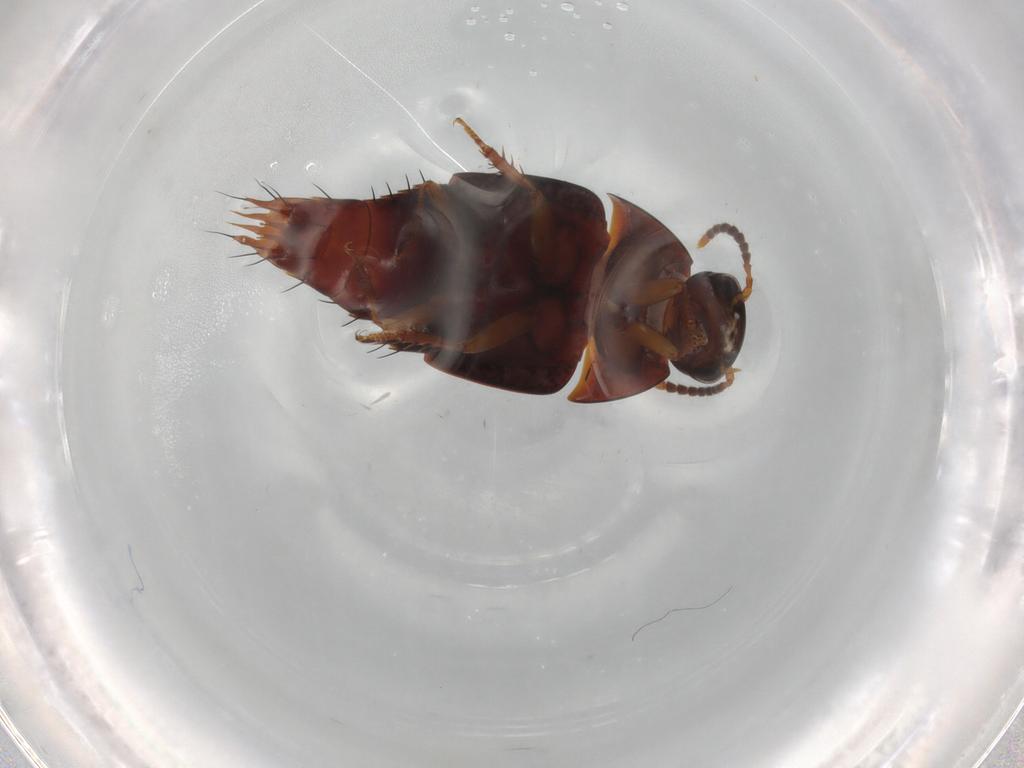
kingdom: Animalia
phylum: Arthropoda
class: Insecta
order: Coleoptera
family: Staphylinidae
